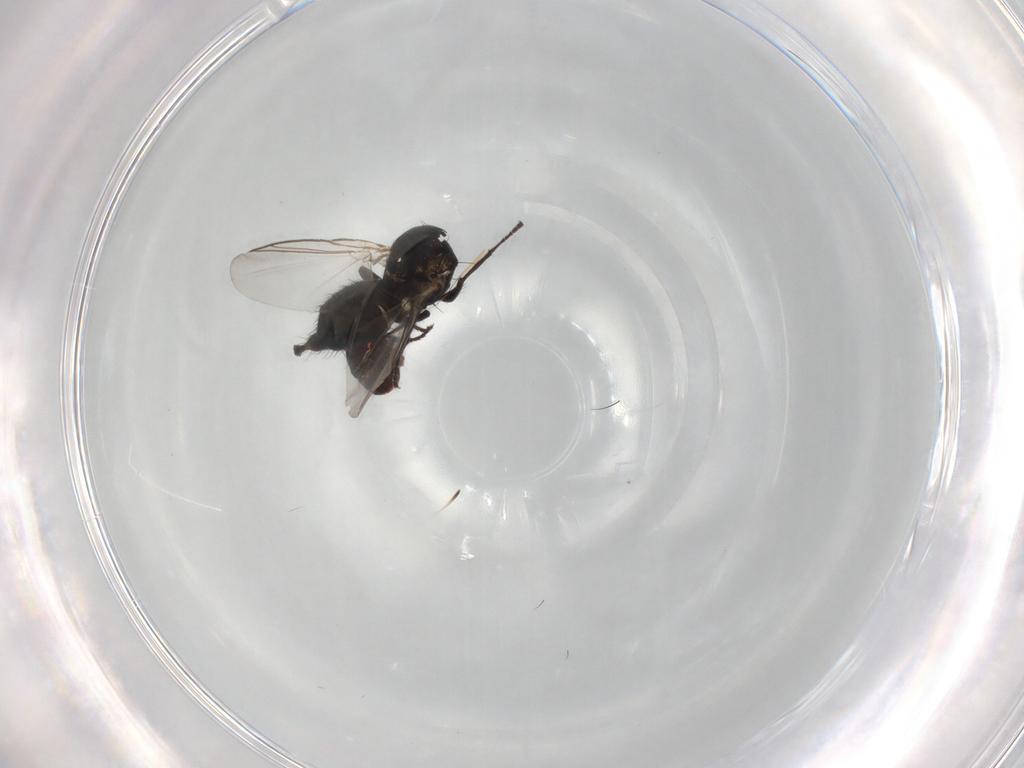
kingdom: Animalia
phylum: Arthropoda
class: Insecta
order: Diptera
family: Agromyzidae
